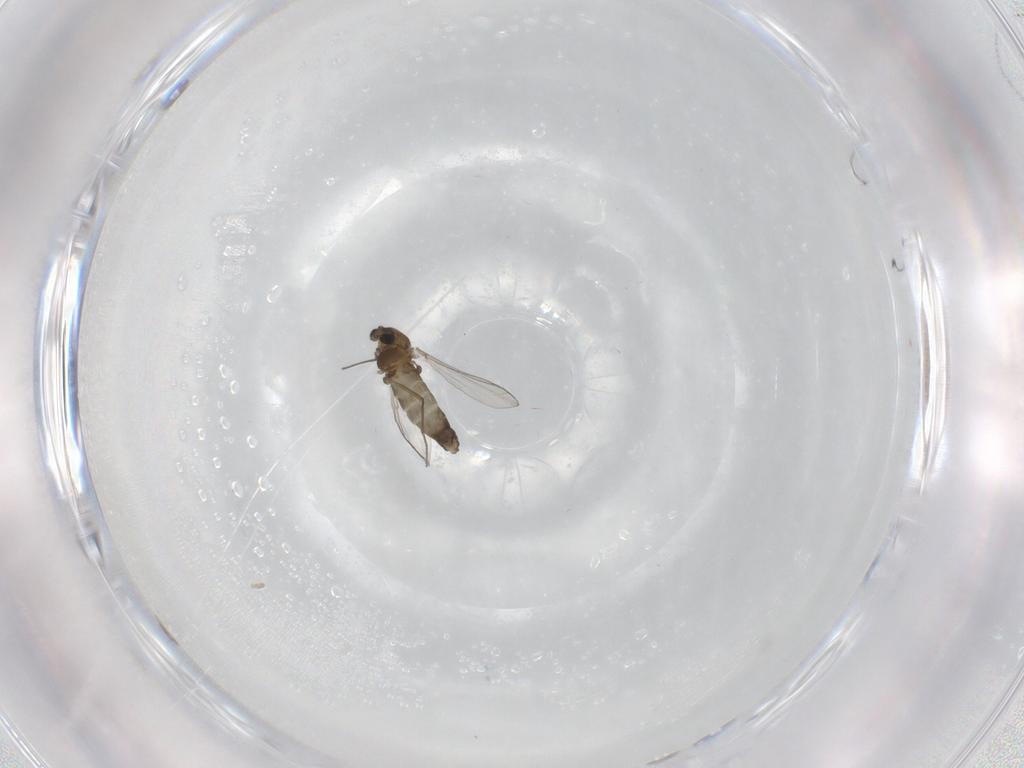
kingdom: Animalia
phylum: Arthropoda
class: Insecta
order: Diptera
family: Chironomidae
